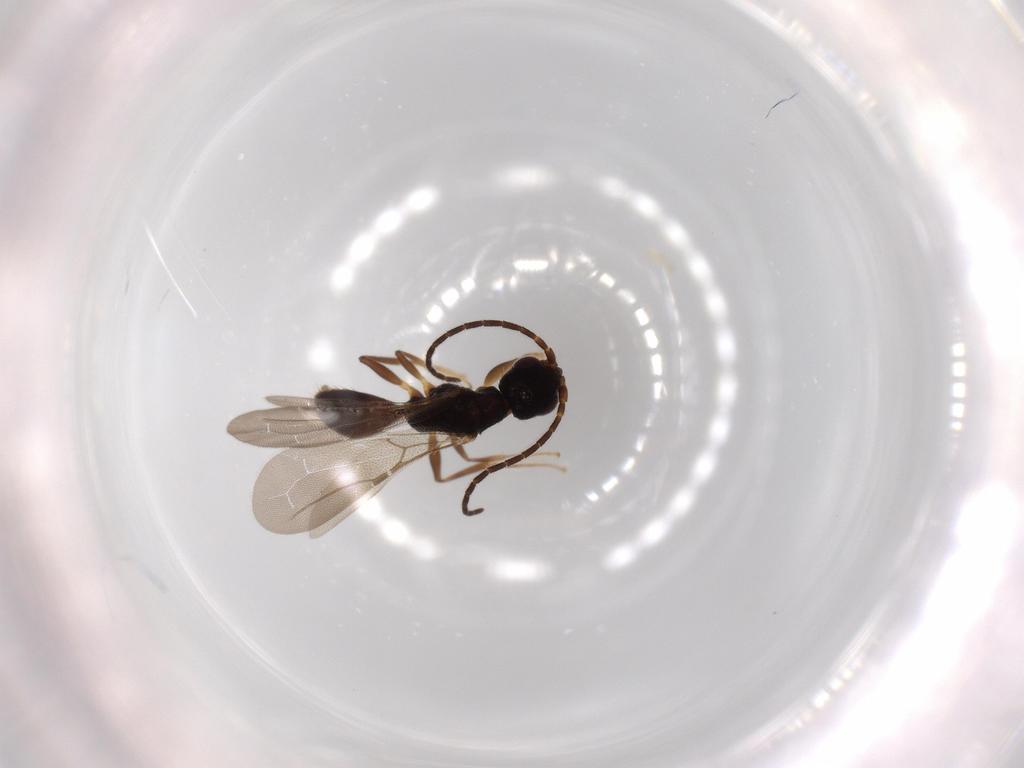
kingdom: Animalia
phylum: Arthropoda
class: Insecta
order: Hymenoptera
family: Bethylidae
